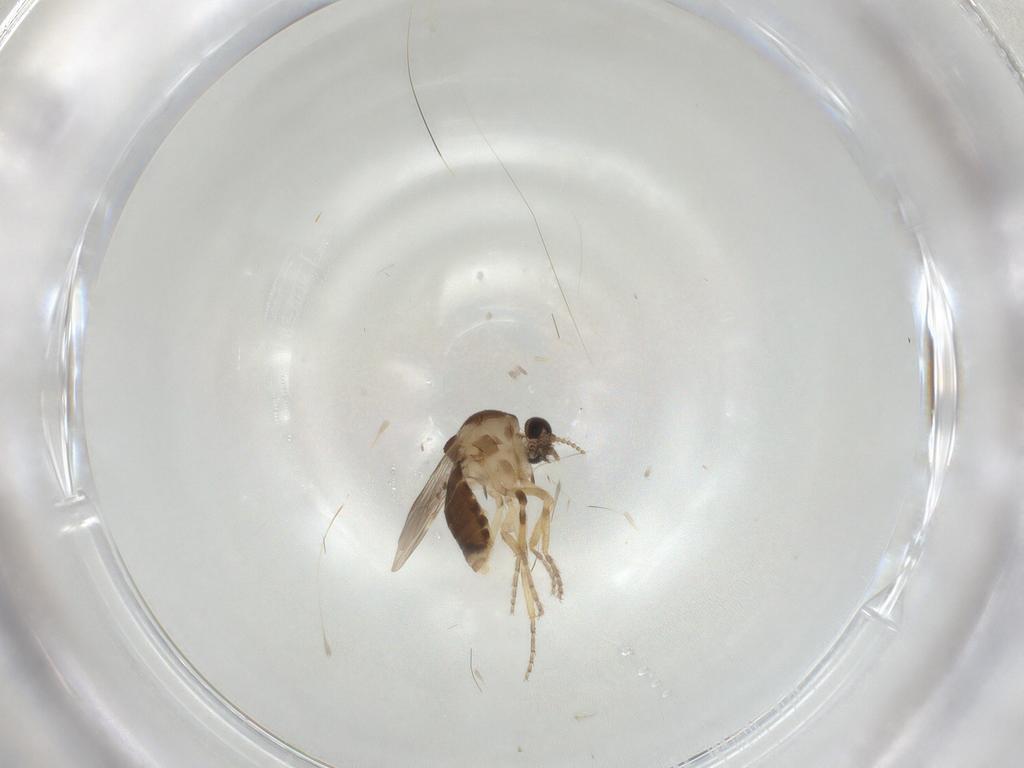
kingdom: Animalia
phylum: Arthropoda
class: Insecta
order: Diptera
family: Ceratopogonidae
